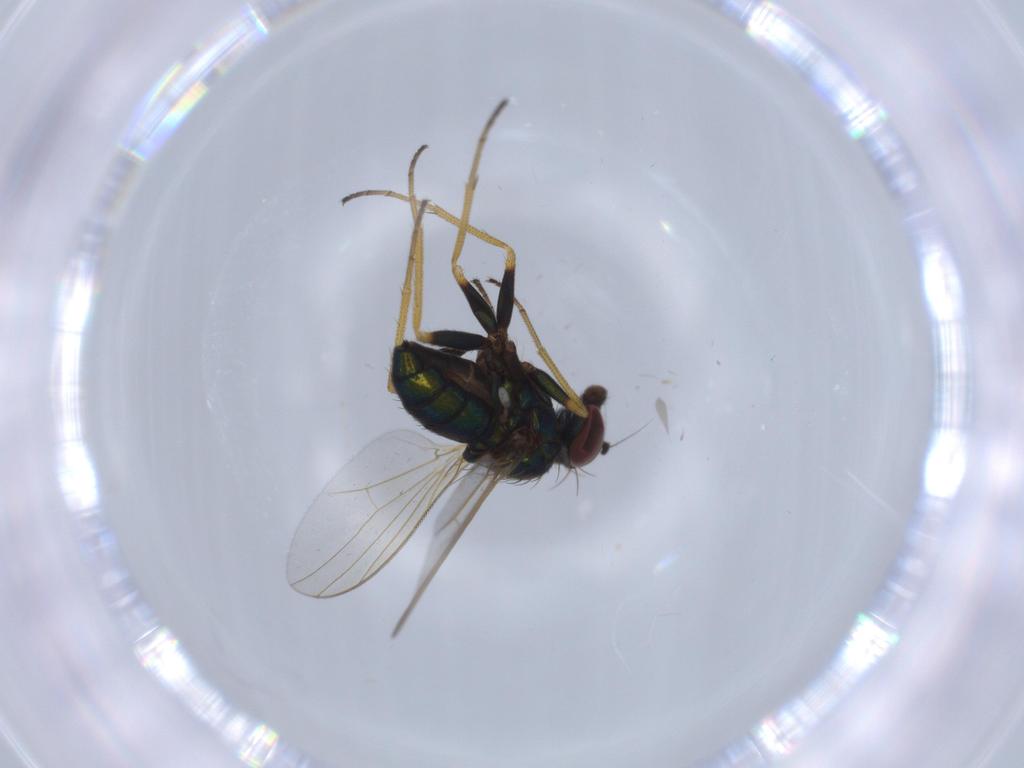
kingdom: Animalia
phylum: Arthropoda
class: Insecta
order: Diptera
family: Dolichopodidae
